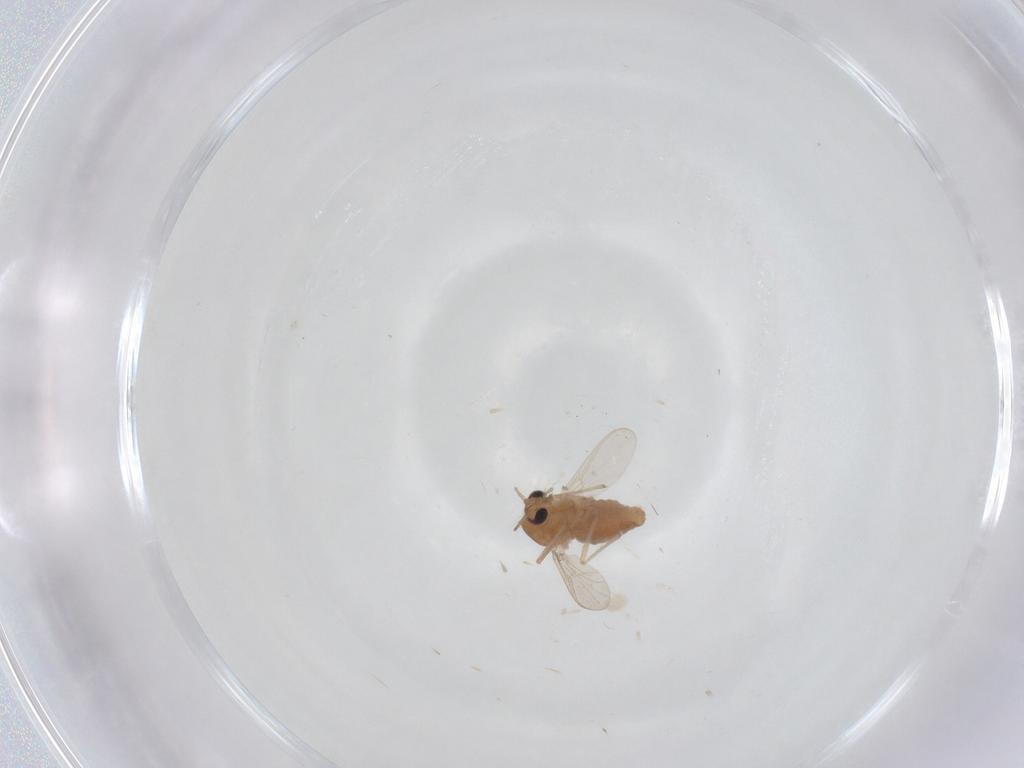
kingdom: Animalia
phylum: Arthropoda
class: Insecta
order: Diptera
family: Chironomidae
